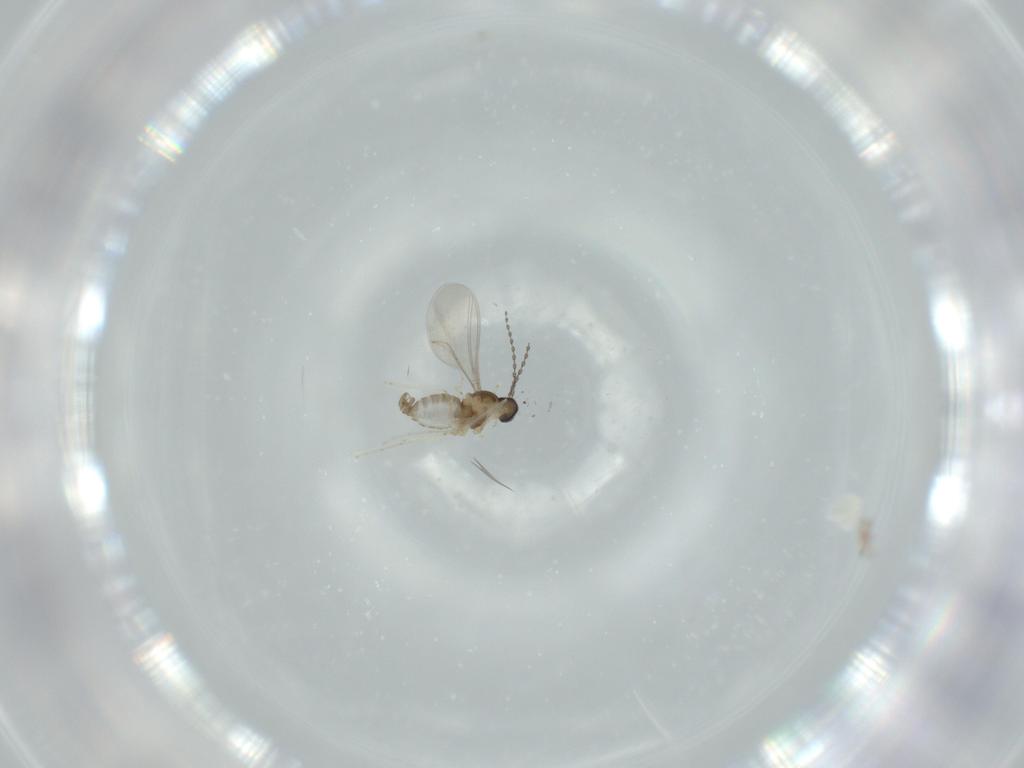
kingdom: Animalia
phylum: Arthropoda
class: Insecta
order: Diptera
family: Cecidomyiidae
